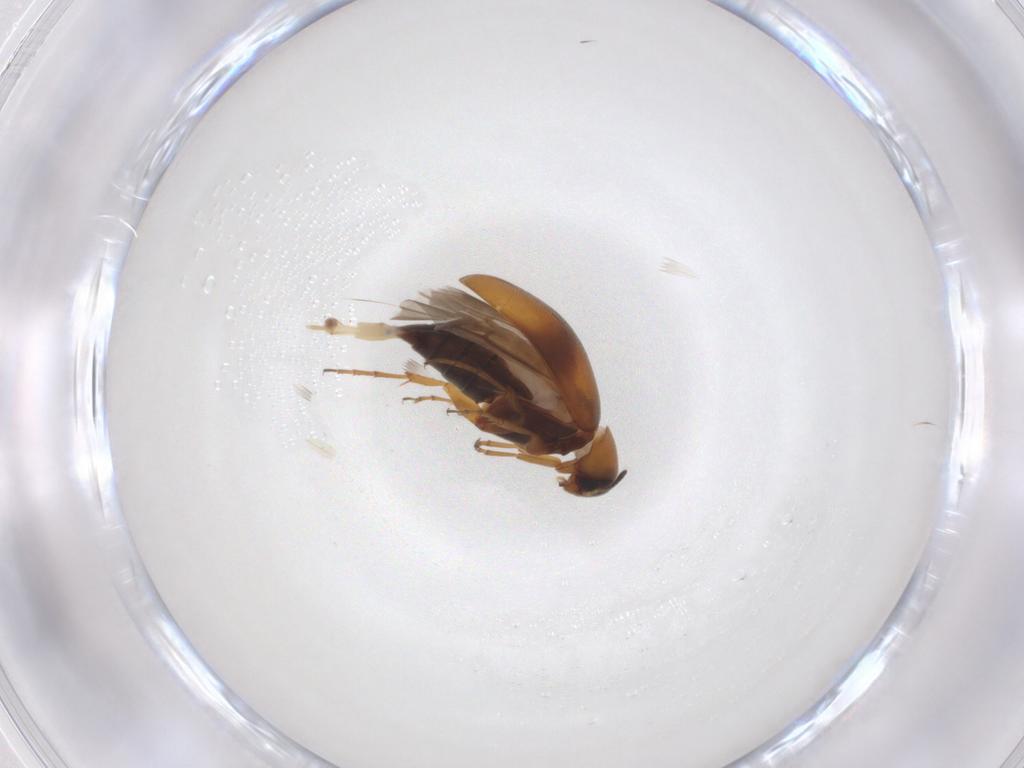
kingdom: Animalia
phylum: Arthropoda
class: Insecta
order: Coleoptera
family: Scraptiidae
